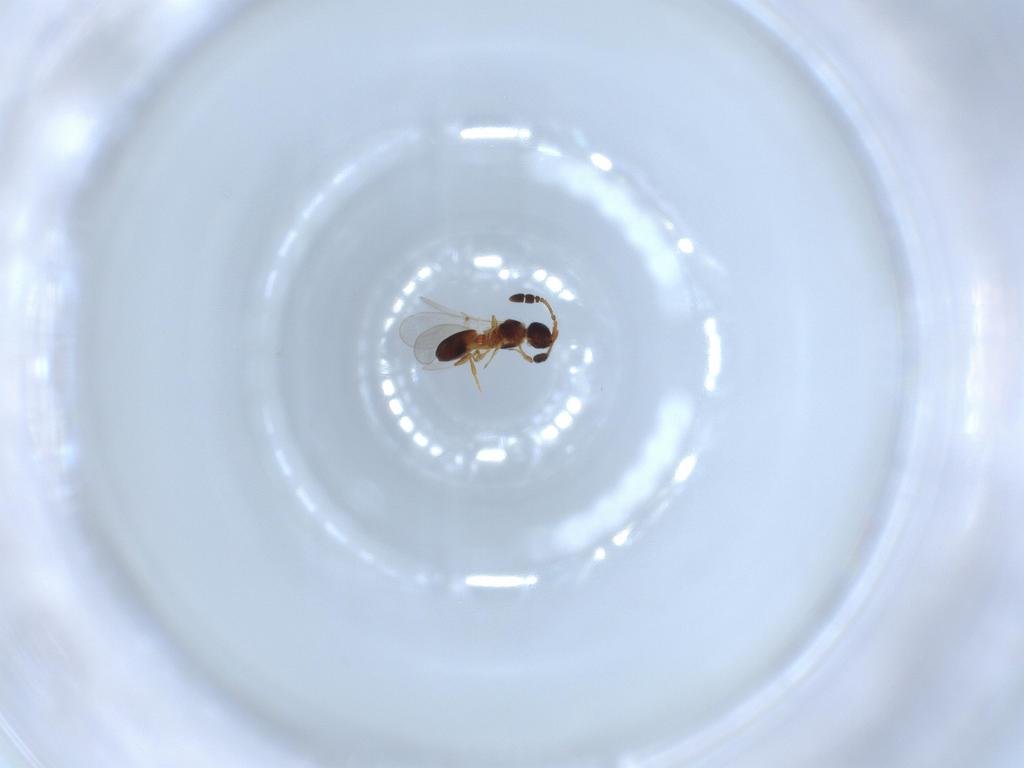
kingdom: Animalia
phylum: Arthropoda
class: Insecta
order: Hymenoptera
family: Diapriidae
